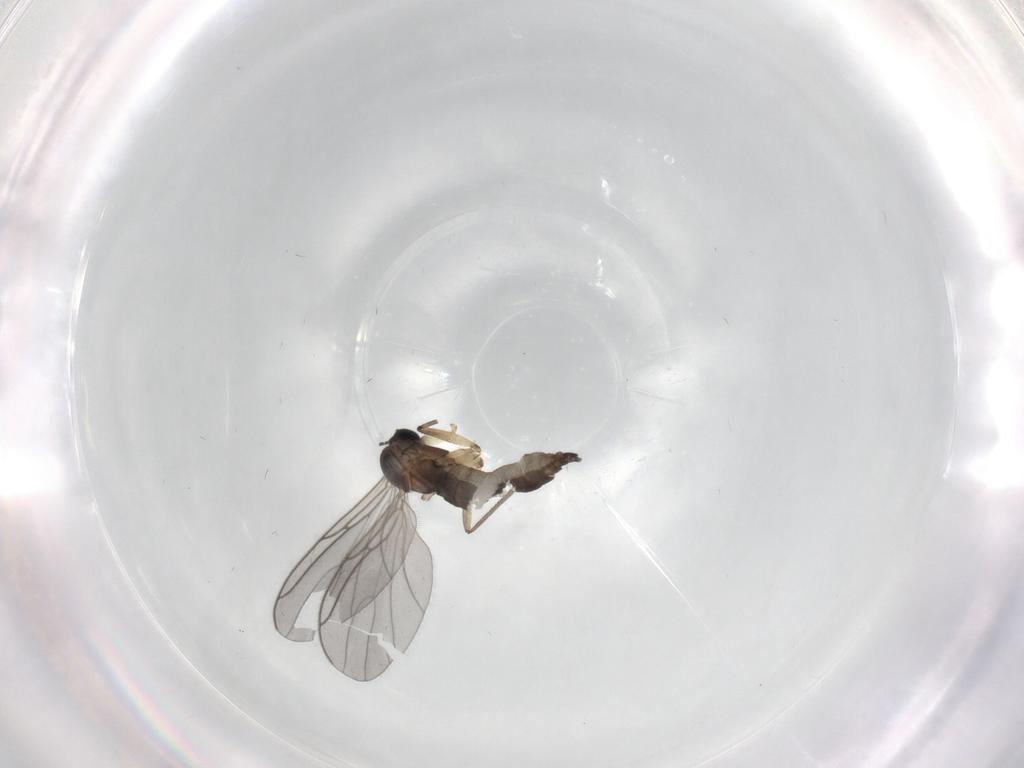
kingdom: Animalia
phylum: Arthropoda
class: Insecta
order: Diptera
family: Sciaridae
